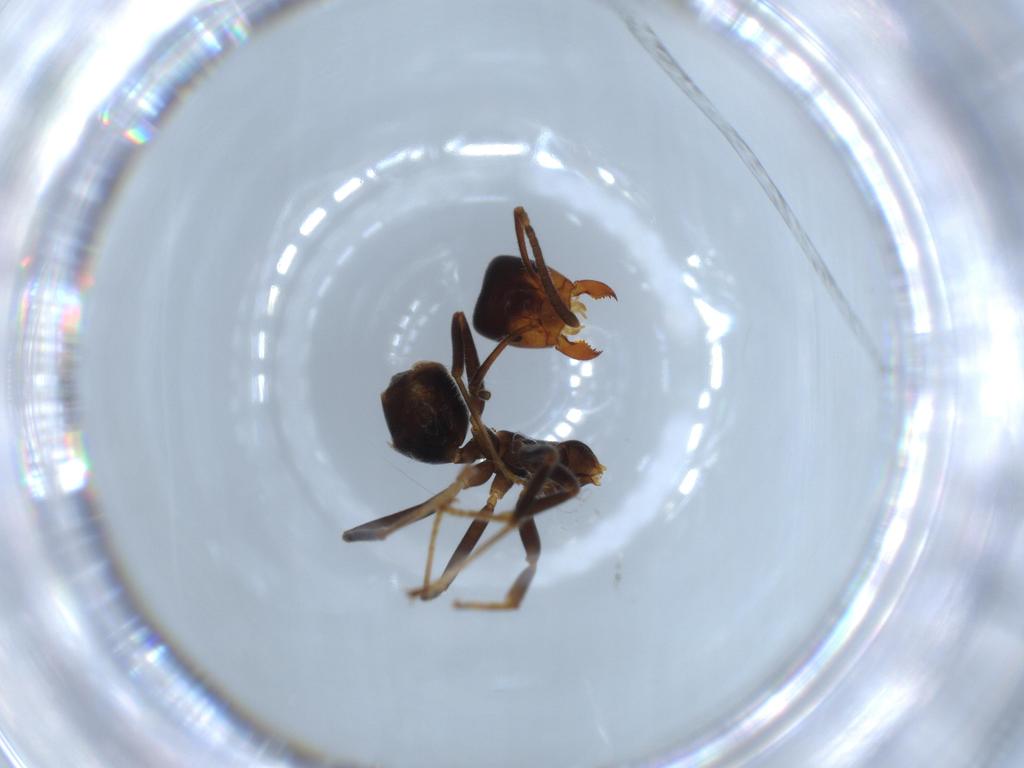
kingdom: Animalia
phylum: Arthropoda
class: Insecta
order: Hymenoptera
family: Formicidae
